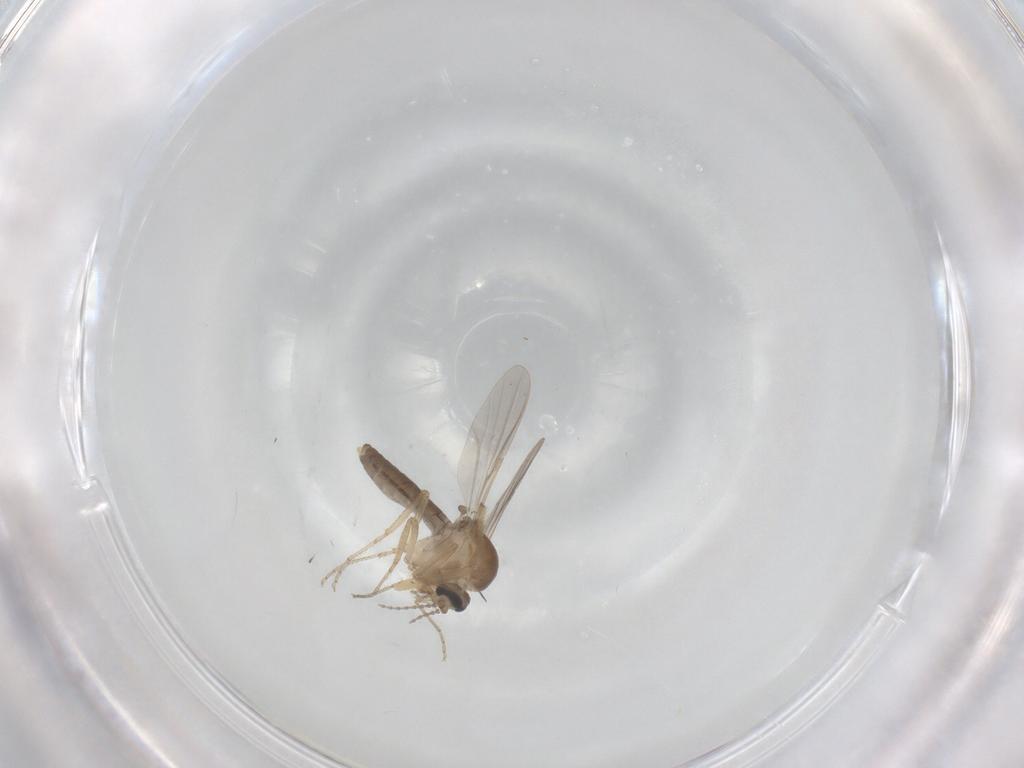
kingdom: Animalia
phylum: Arthropoda
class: Insecta
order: Diptera
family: Ceratopogonidae
